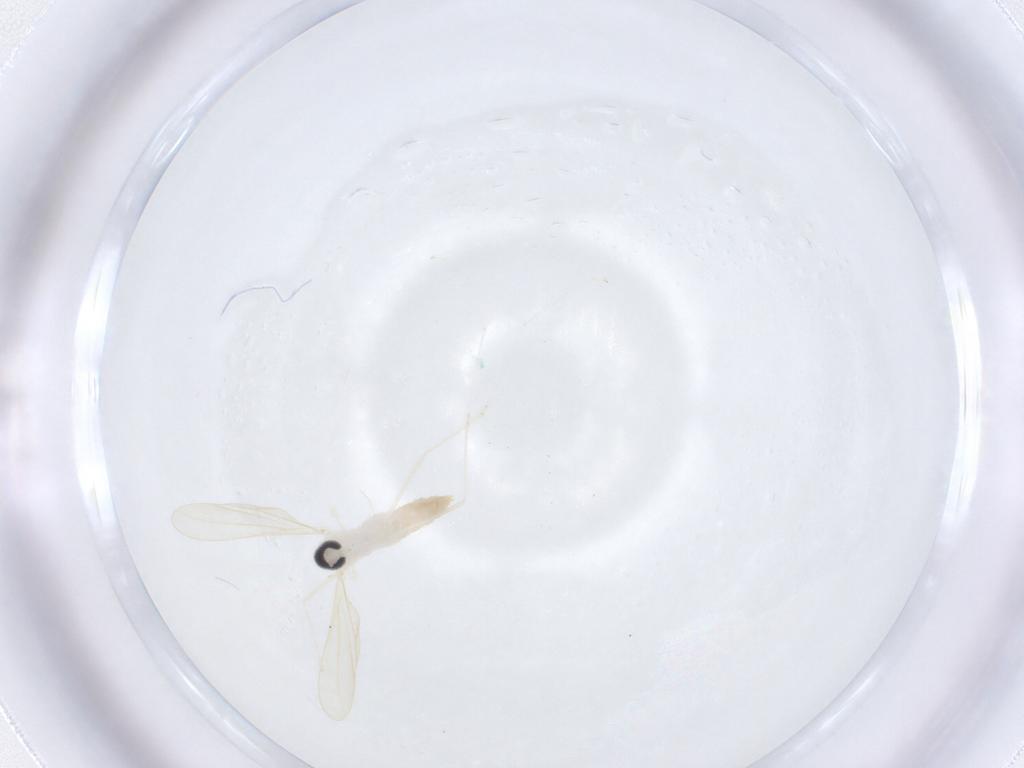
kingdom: Animalia
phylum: Arthropoda
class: Insecta
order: Diptera
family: Cecidomyiidae
